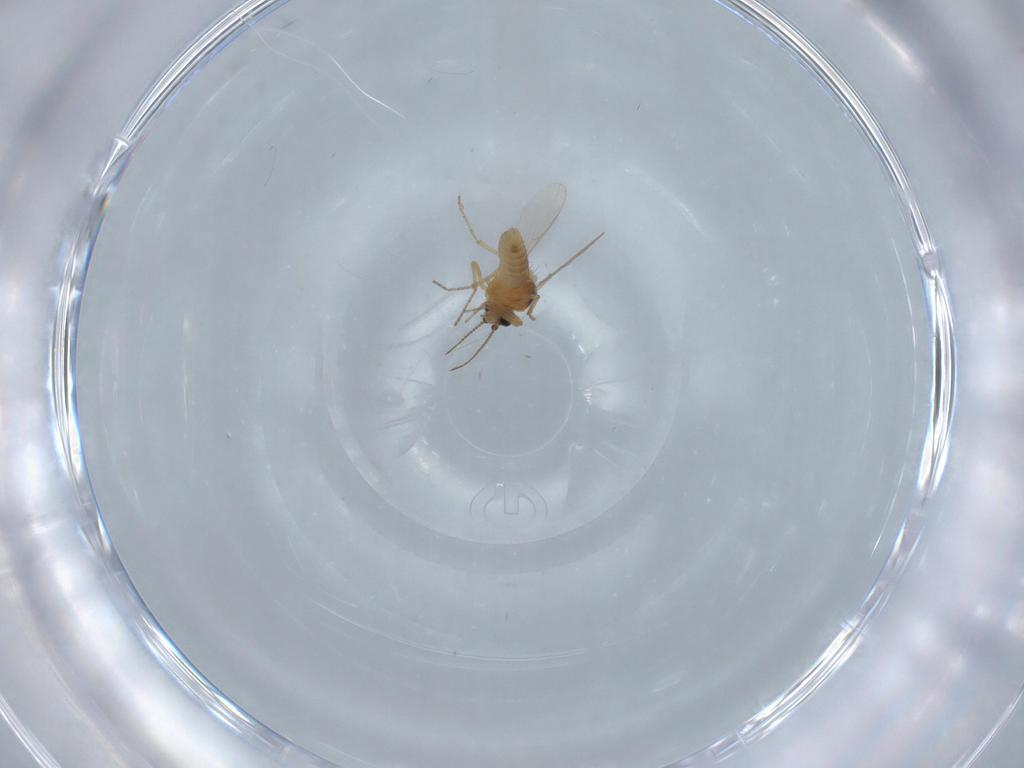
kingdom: Animalia
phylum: Arthropoda
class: Insecta
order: Diptera
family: Ceratopogonidae
